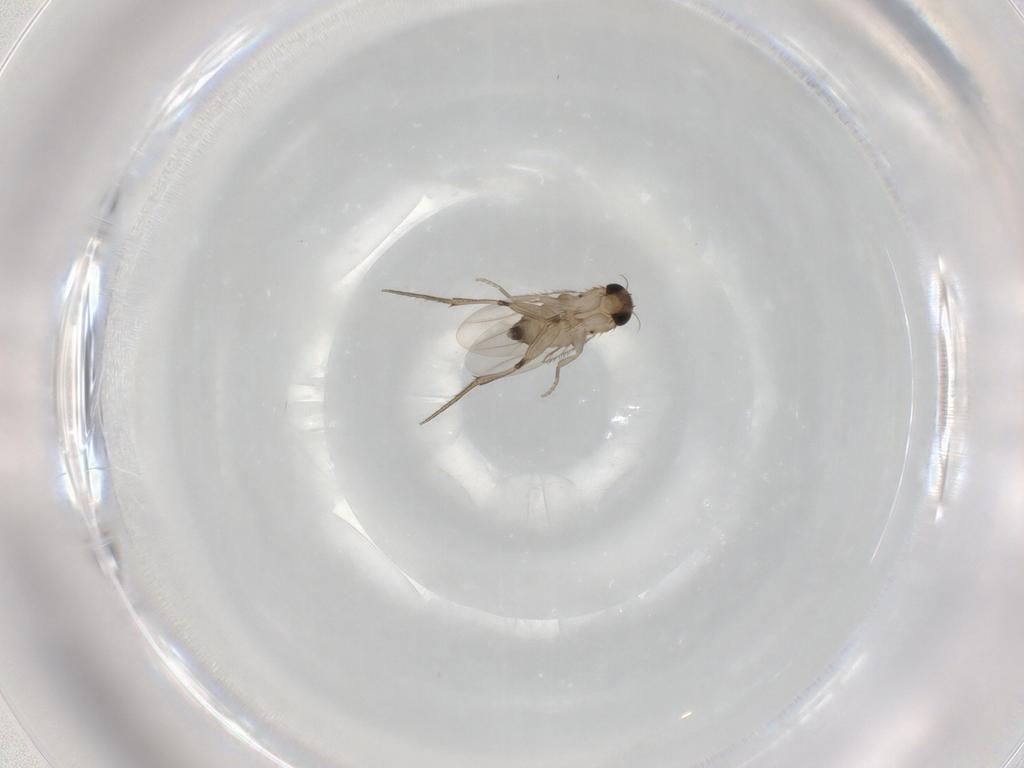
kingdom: Animalia
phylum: Arthropoda
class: Insecta
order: Diptera
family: Phoridae
